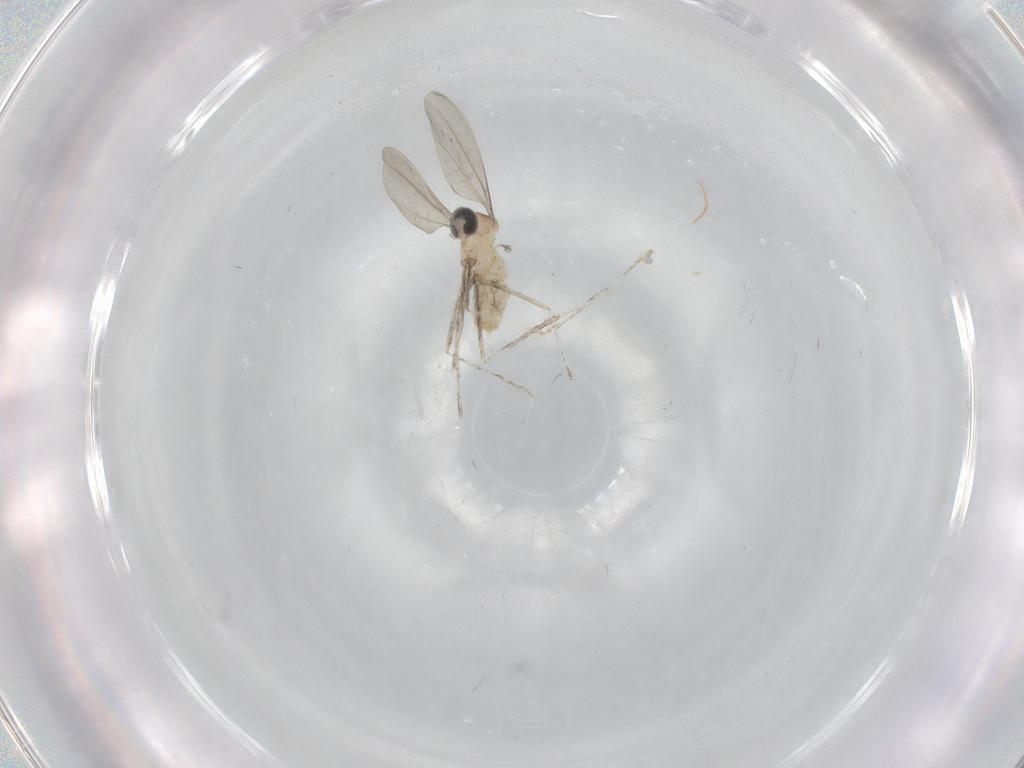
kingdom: Animalia
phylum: Arthropoda
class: Insecta
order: Diptera
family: Cecidomyiidae
